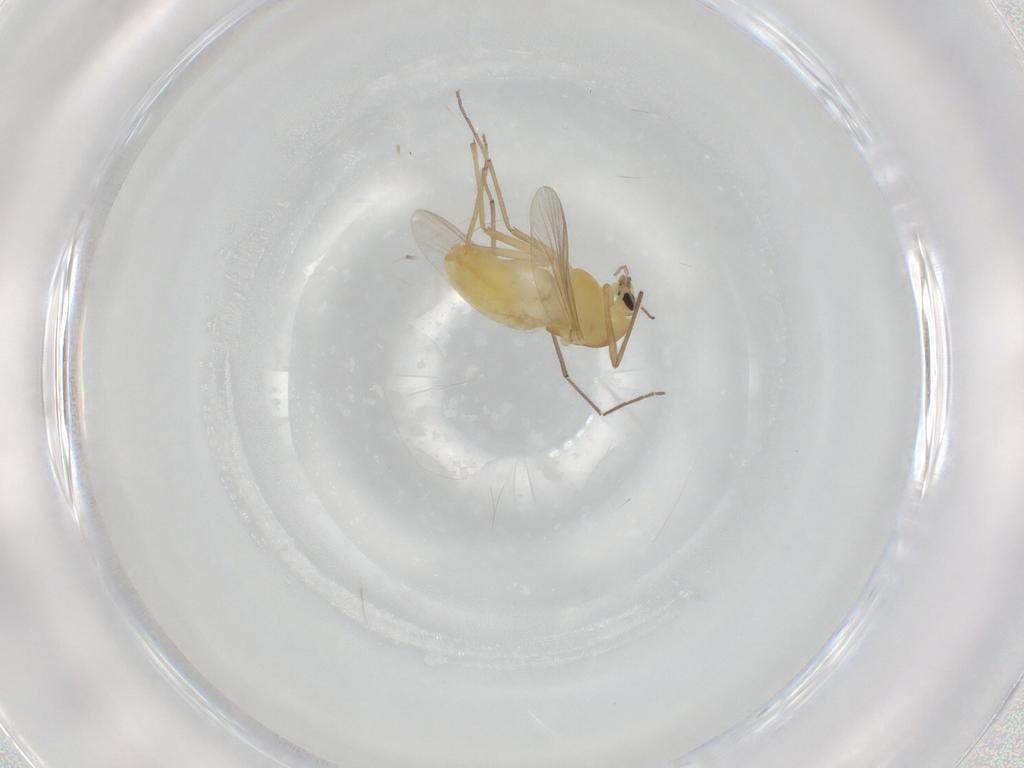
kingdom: Animalia
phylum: Arthropoda
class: Insecta
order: Diptera
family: Chironomidae
